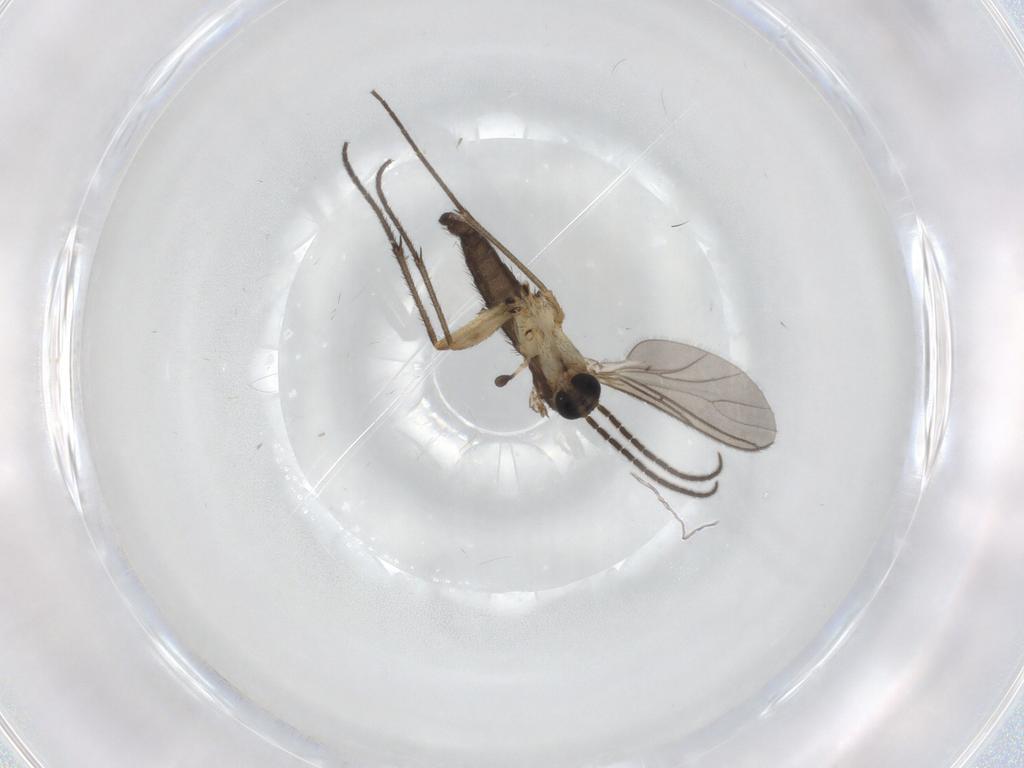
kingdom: Animalia
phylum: Arthropoda
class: Insecta
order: Diptera
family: Sciaridae
